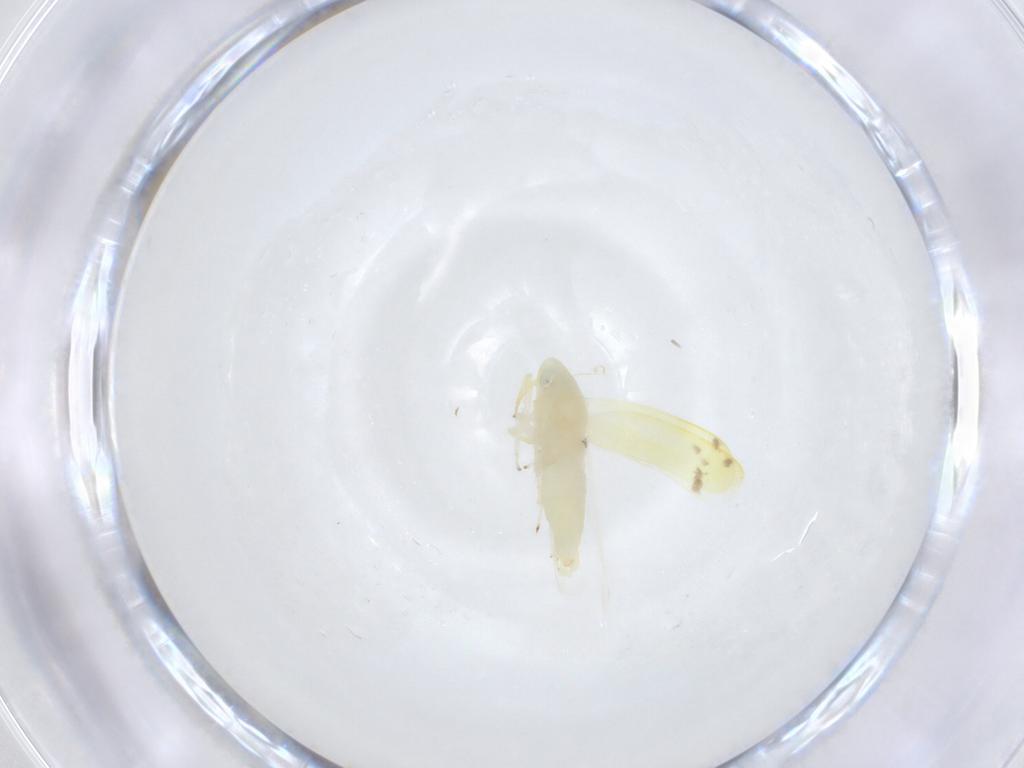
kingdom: Animalia
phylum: Arthropoda
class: Insecta
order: Hemiptera
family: Cicadellidae
